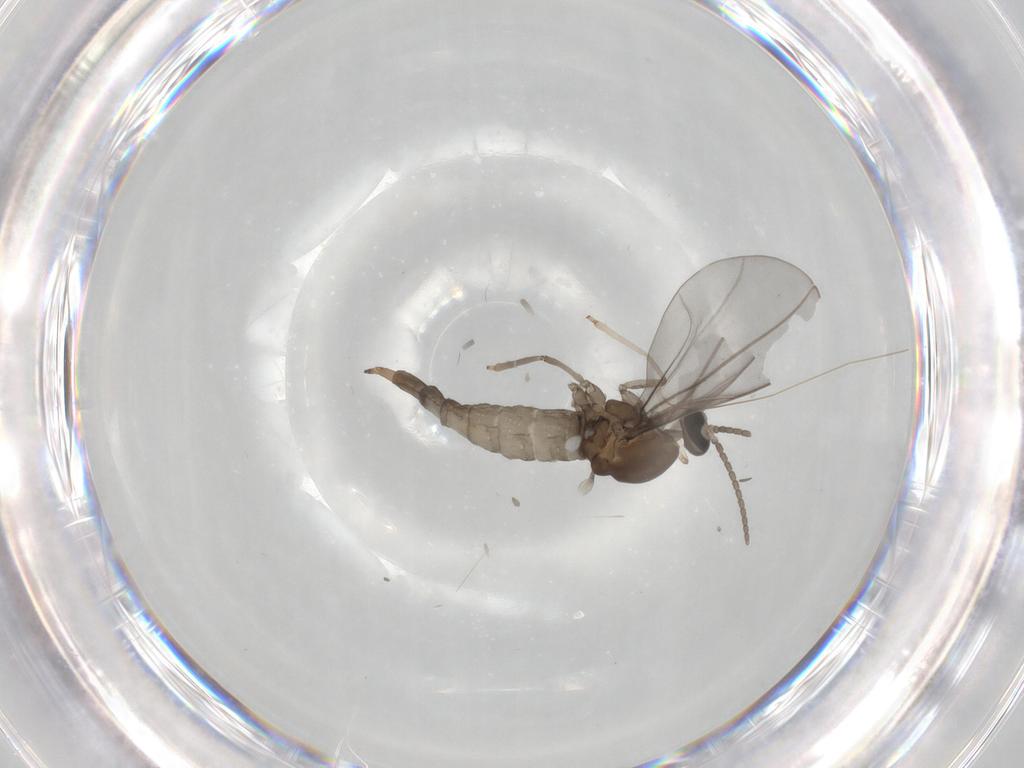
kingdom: Animalia
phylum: Arthropoda
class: Insecta
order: Diptera
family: Cecidomyiidae
